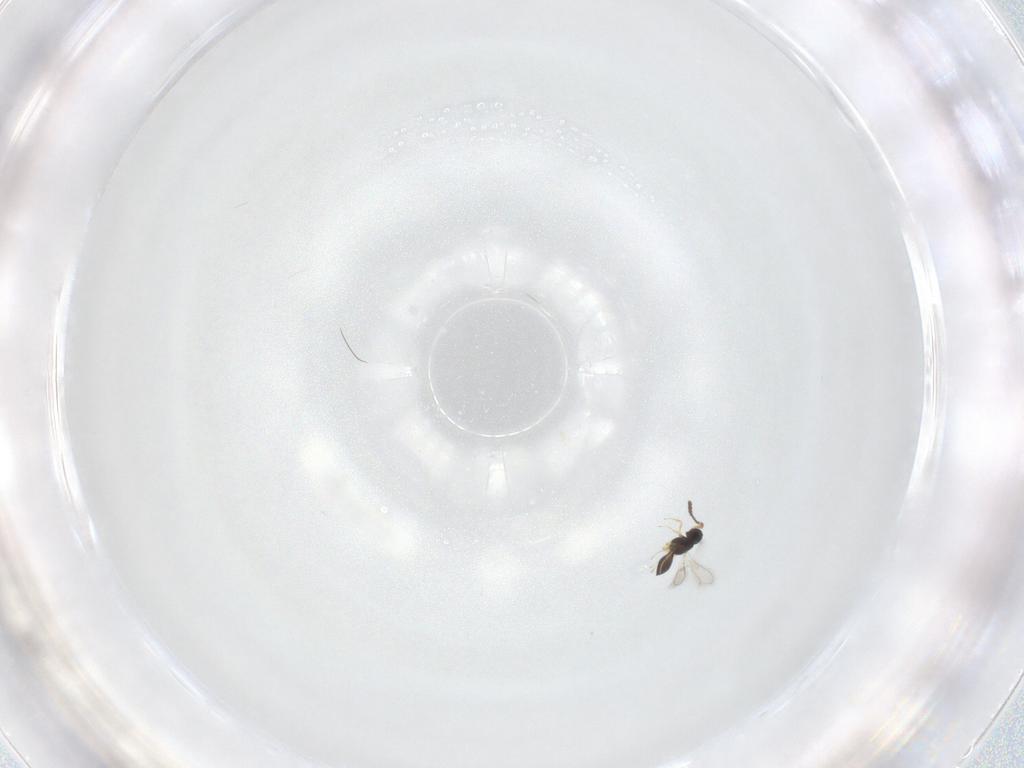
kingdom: Animalia
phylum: Arthropoda
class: Insecta
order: Hymenoptera
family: Scelionidae
